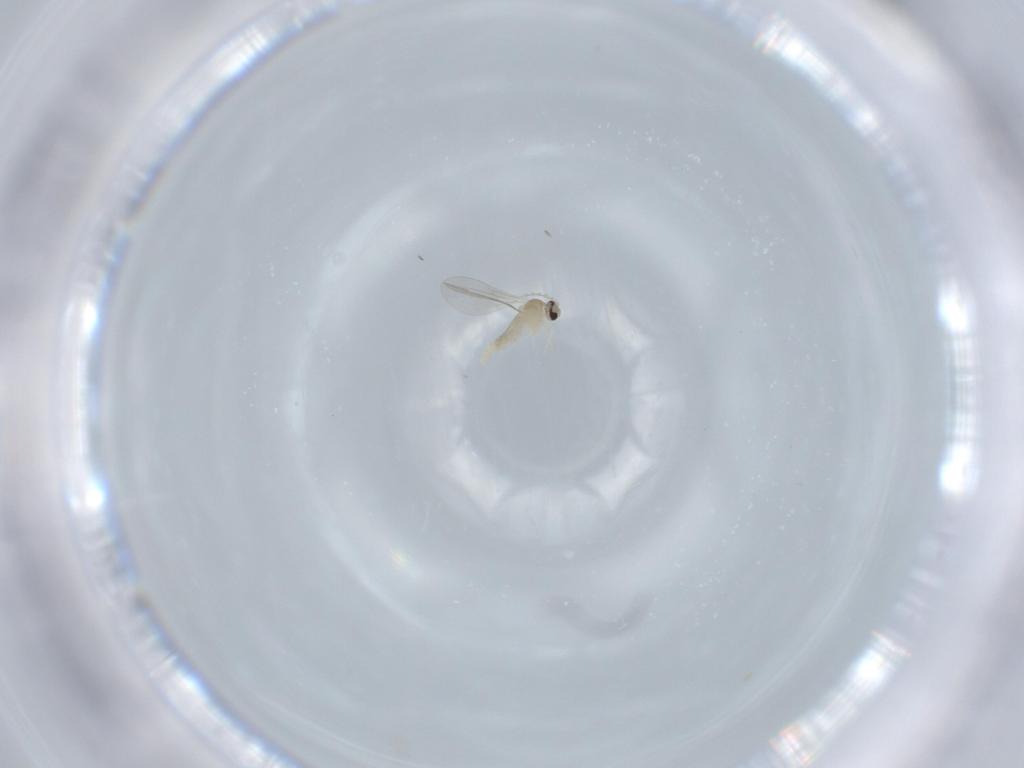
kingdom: Animalia
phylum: Arthropoda
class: Insecta
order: Diptera
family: Cecidomyiidae
